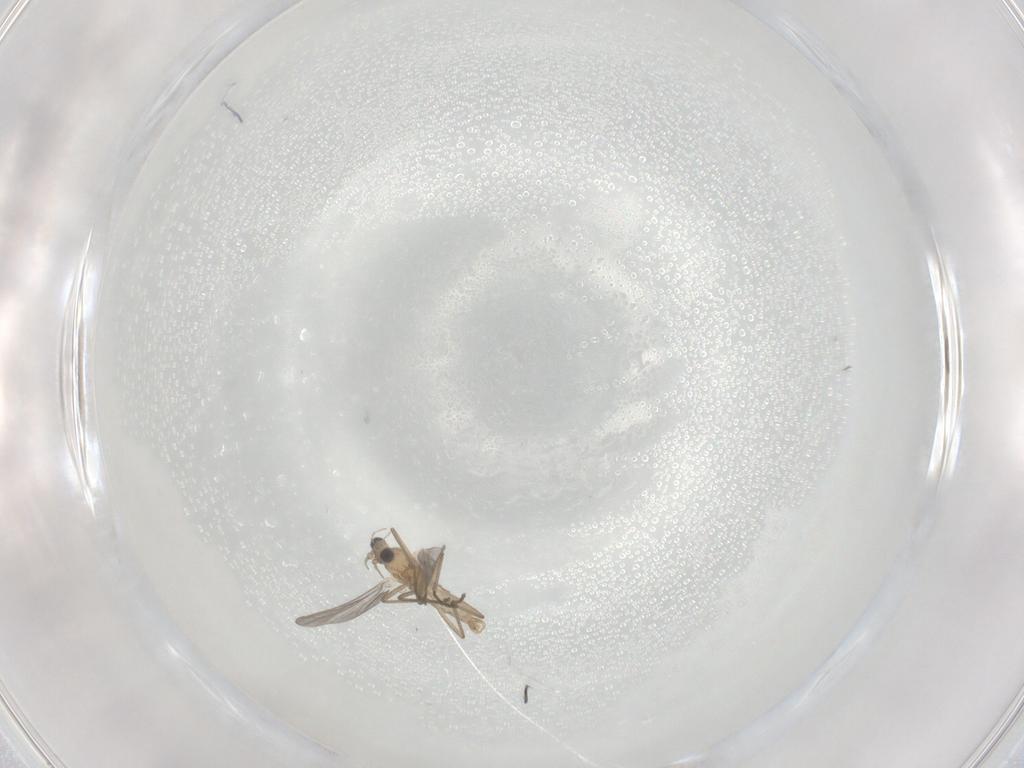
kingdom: Animalia
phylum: Arthropoda
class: Insecta
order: Diptera
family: Cecidomyiidae
